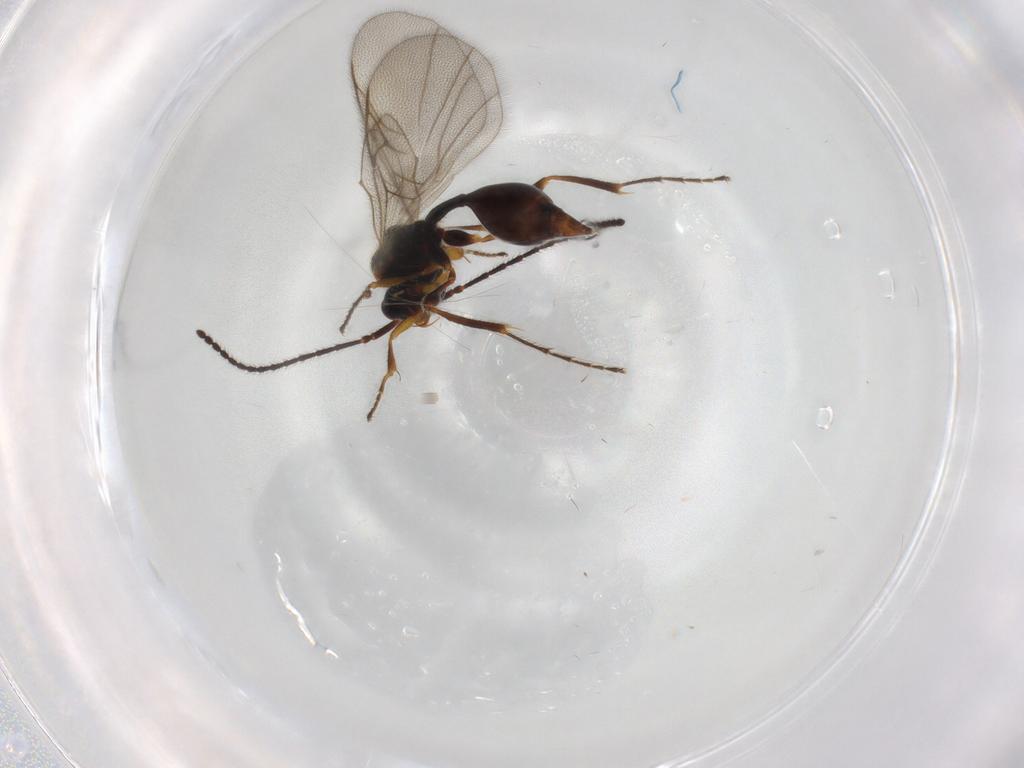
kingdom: Animalia
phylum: Arthropoda
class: Insecta
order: Hymenoptera
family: Diapriidae
